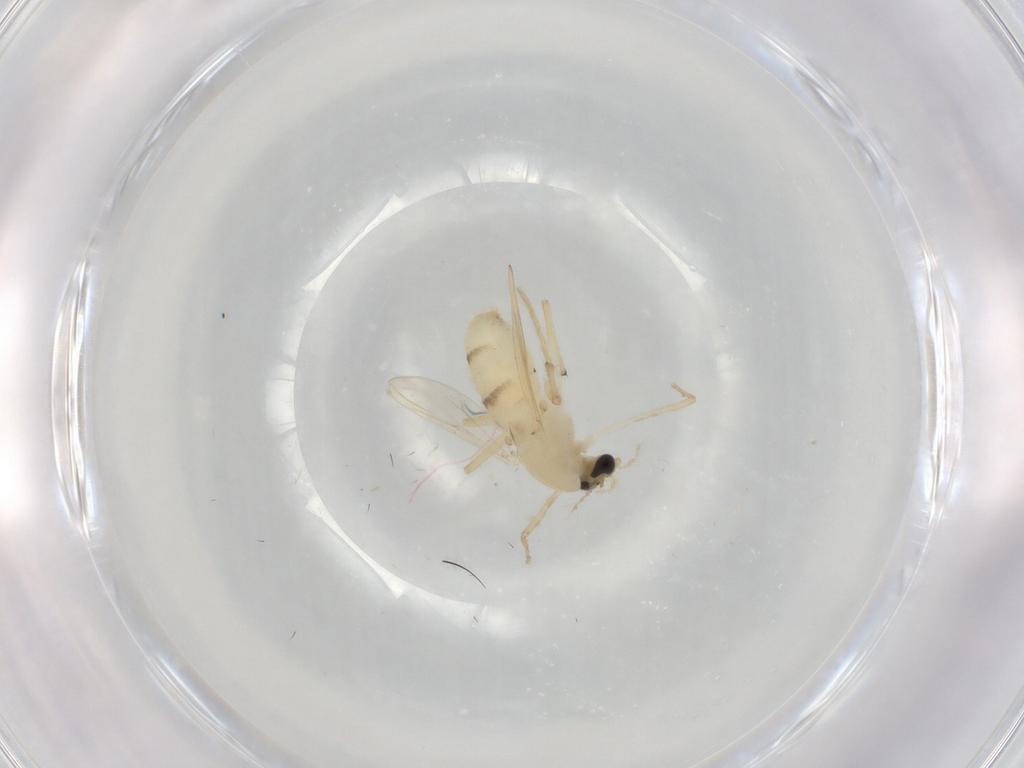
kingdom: Animalia
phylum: Arthropoda
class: Insecta
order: Diptera
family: Chironomidae
